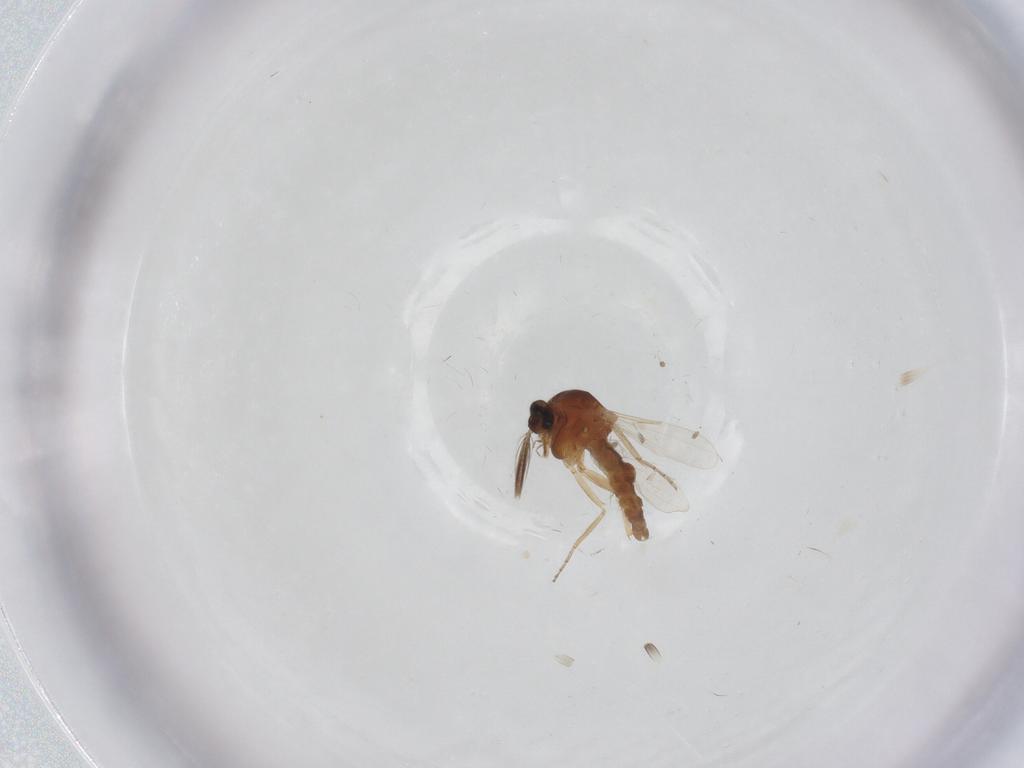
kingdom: Animalia
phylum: Arthropoda
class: Insecta
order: Diptera
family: Ceratopogonidae
